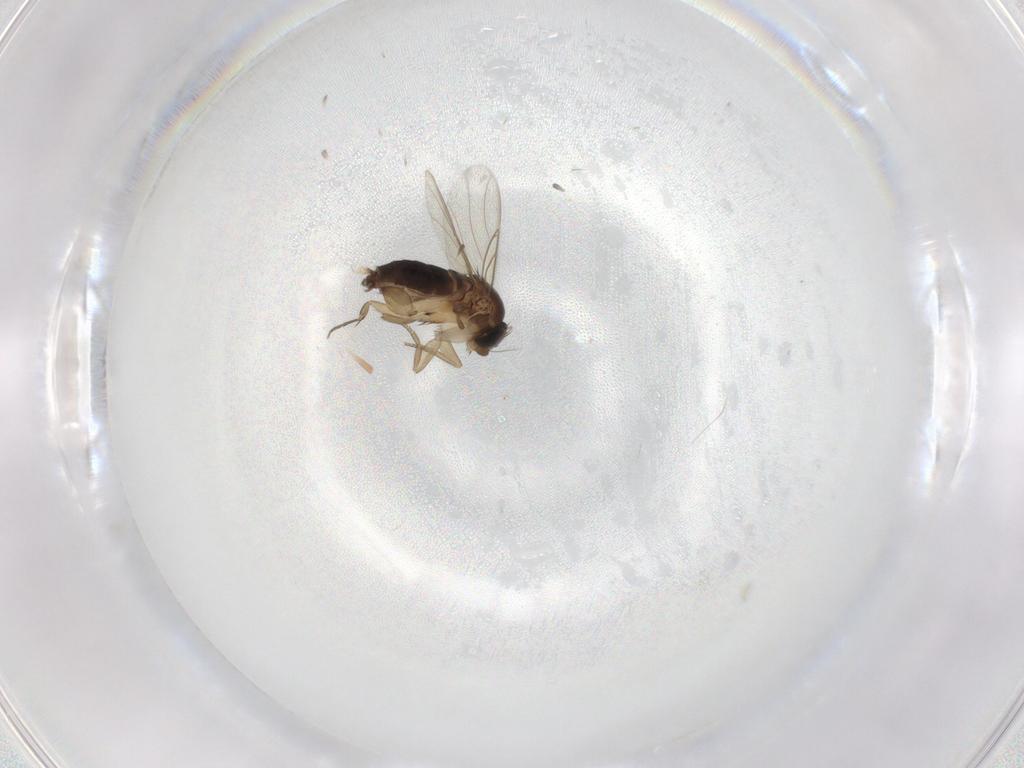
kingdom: Animalia
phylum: Arthropoda
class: Insecta
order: Diptera
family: Phoridae
